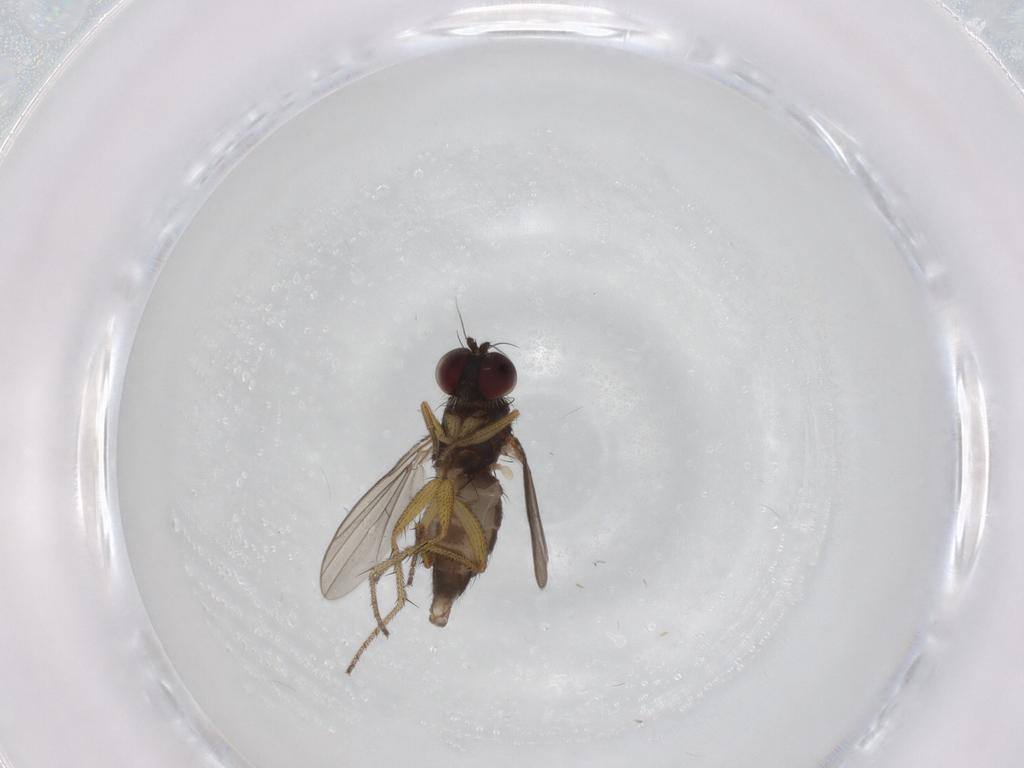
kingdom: Animalia
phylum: Arthropoda
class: Insecta
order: Diptera
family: Dolichopodidae
